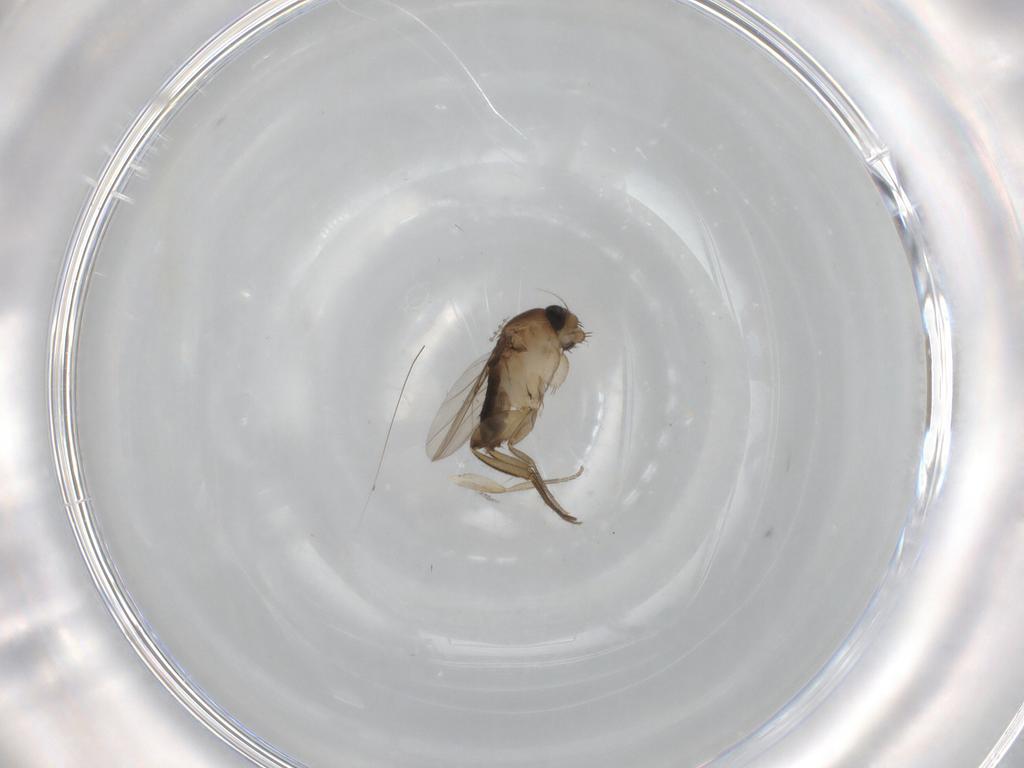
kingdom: Animalia
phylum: Arthropoda
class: Insecta
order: Diptera
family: Phoridae
